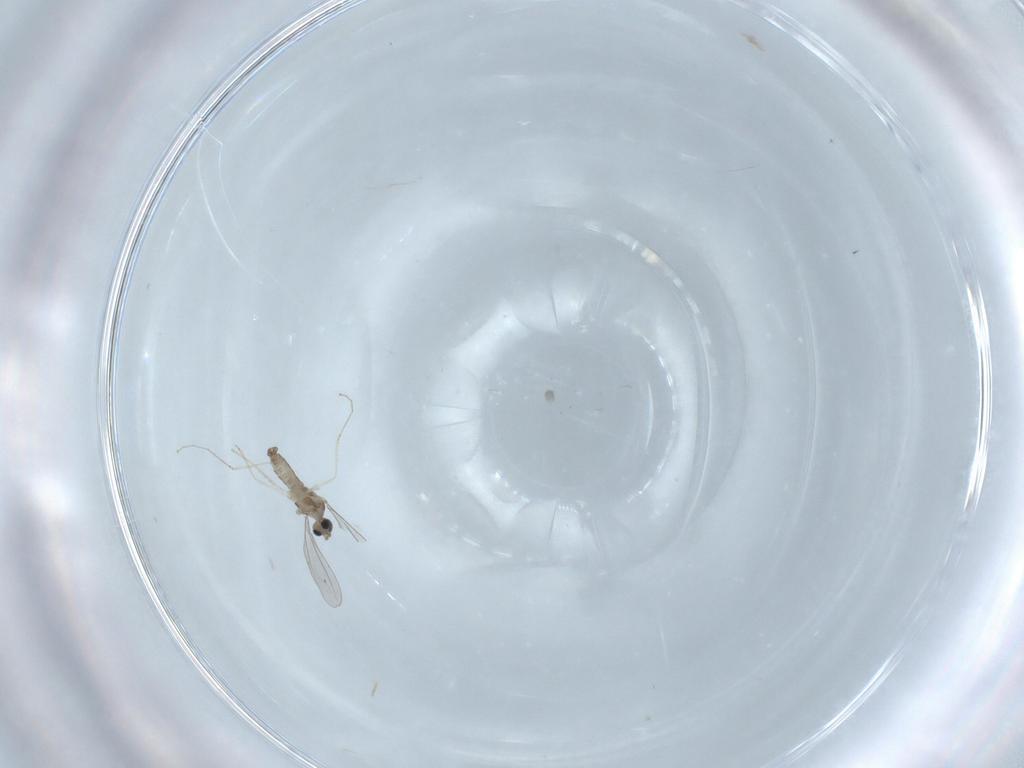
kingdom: Animalia
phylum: Arthropoda
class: Insecta
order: Diptera
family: Cecidomyiidae
